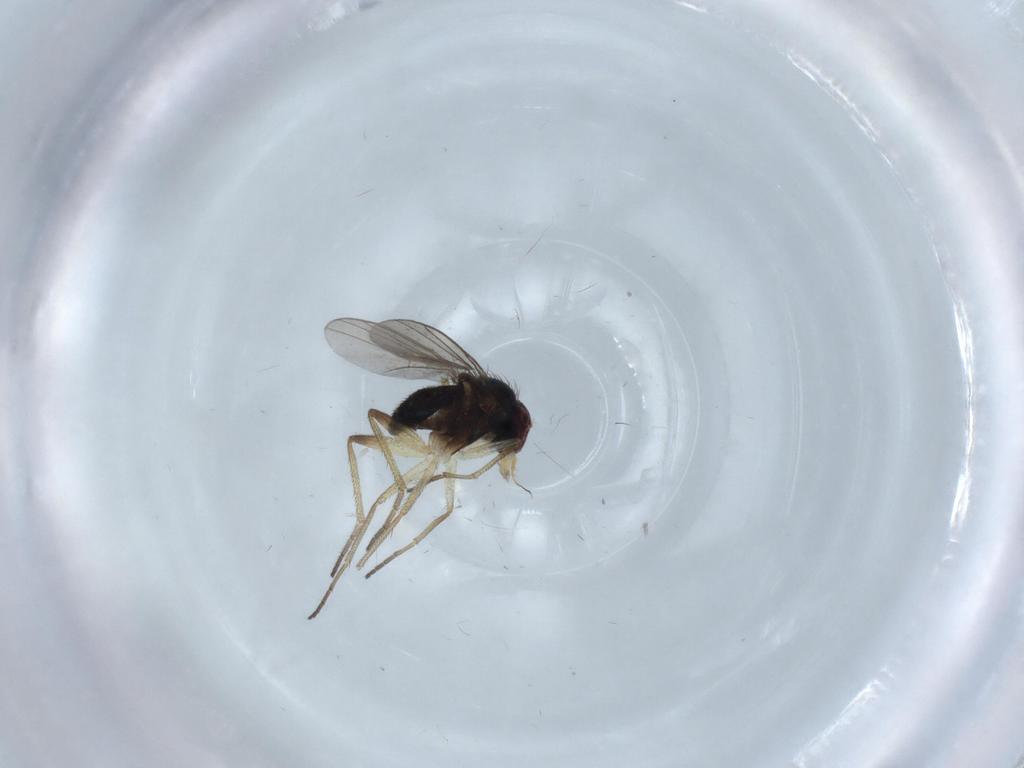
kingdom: Animalia
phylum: Arthropoda
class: Insecta
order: Diptera
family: Dolichopodidae
